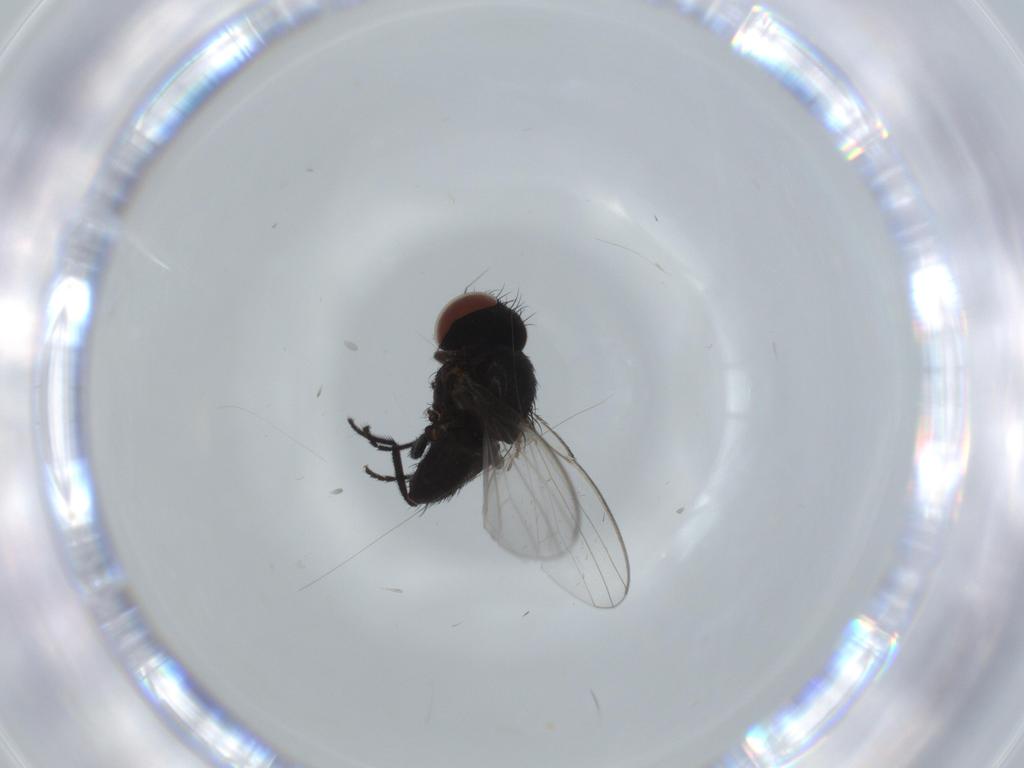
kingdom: Animalia
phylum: Arthropoda
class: Insecta
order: Diptera
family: Milichiidae
